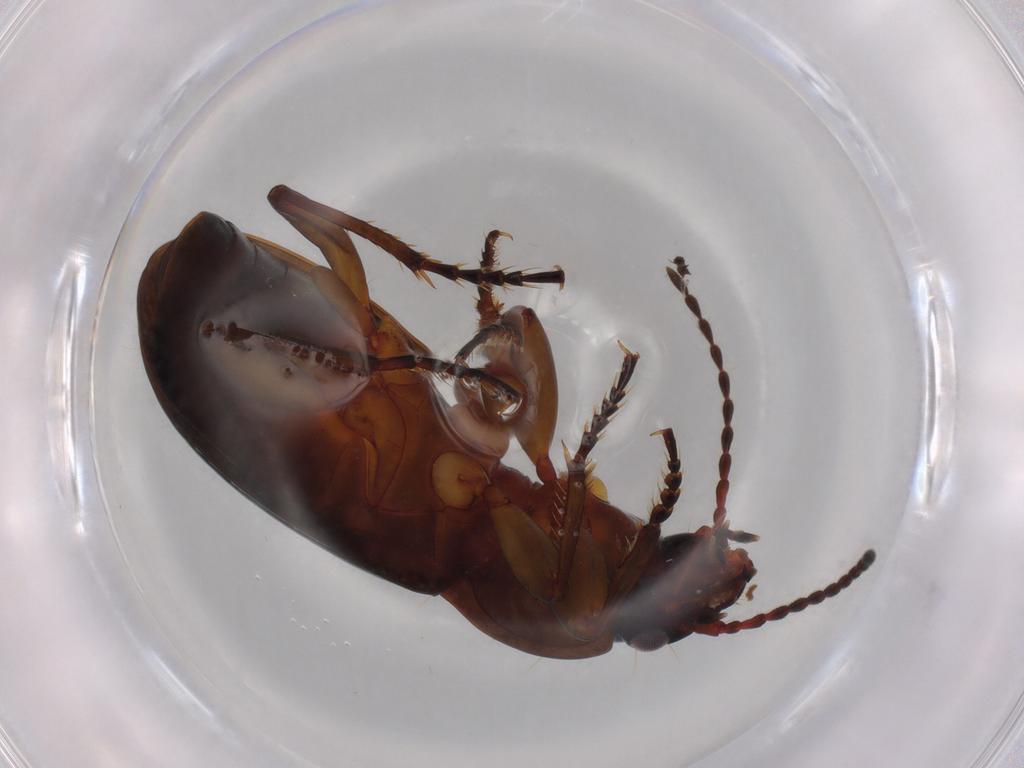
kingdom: Animalia
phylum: Arthropoda
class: Insecta
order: Coleoptera
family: Carabidae
